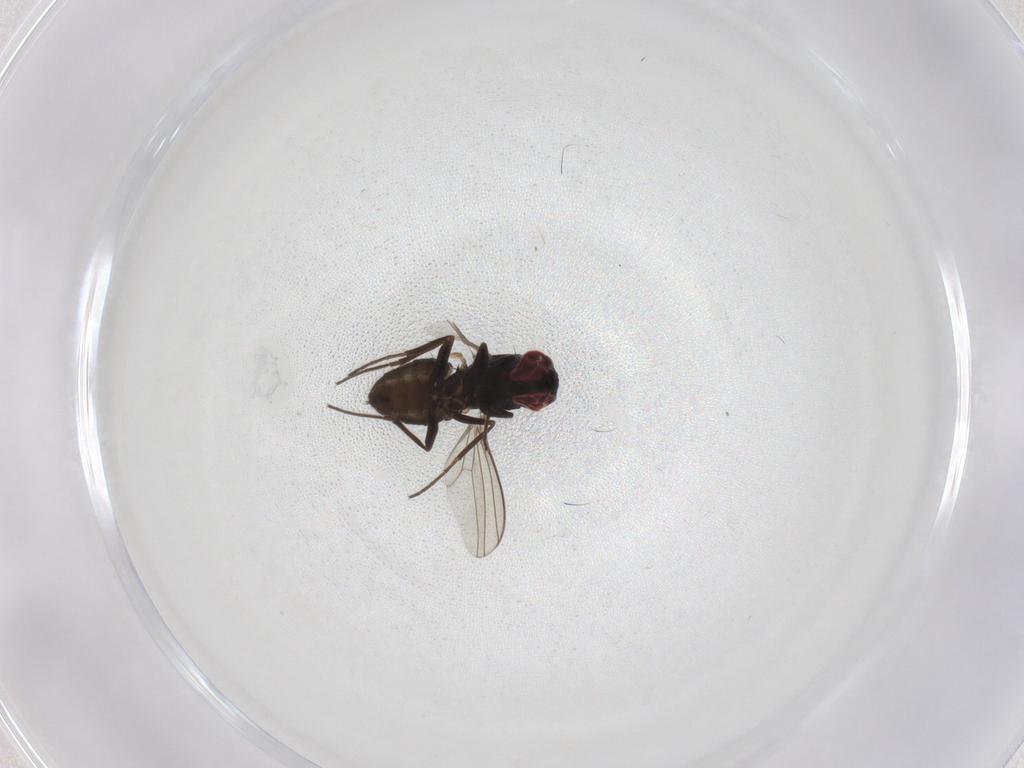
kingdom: Animalia
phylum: Arthropoda
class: Insecta
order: Diptera
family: Dolichopodidae
